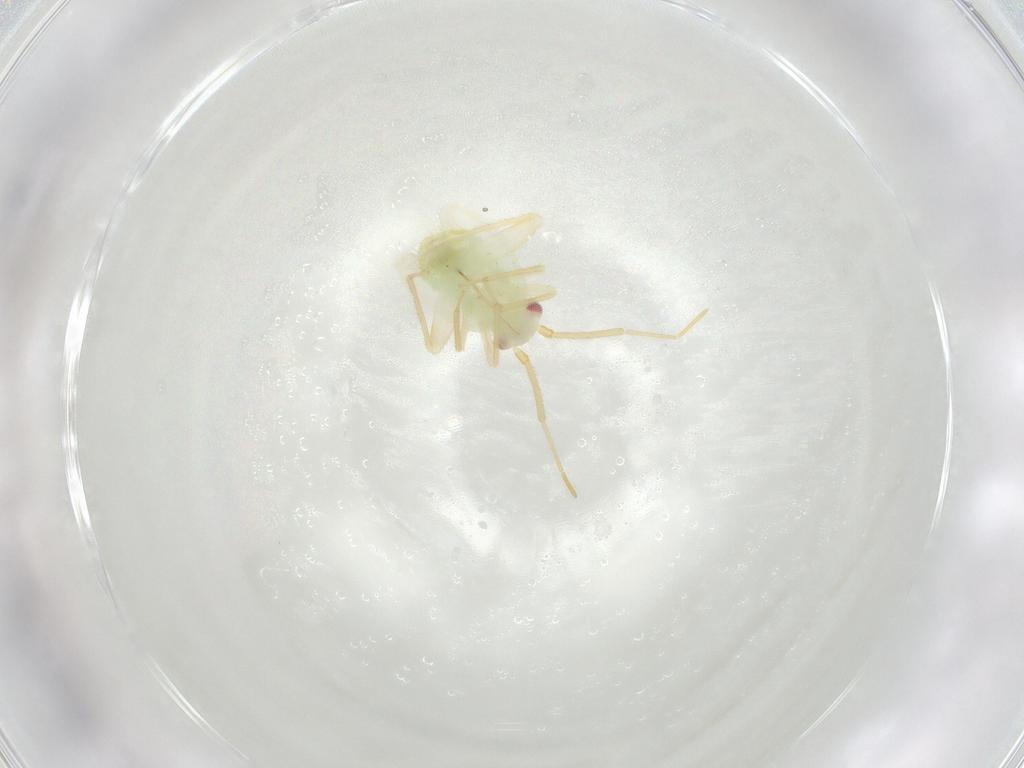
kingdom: Animalia
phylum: Arthropoda
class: Insecta
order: Hemiptera
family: Miridae
